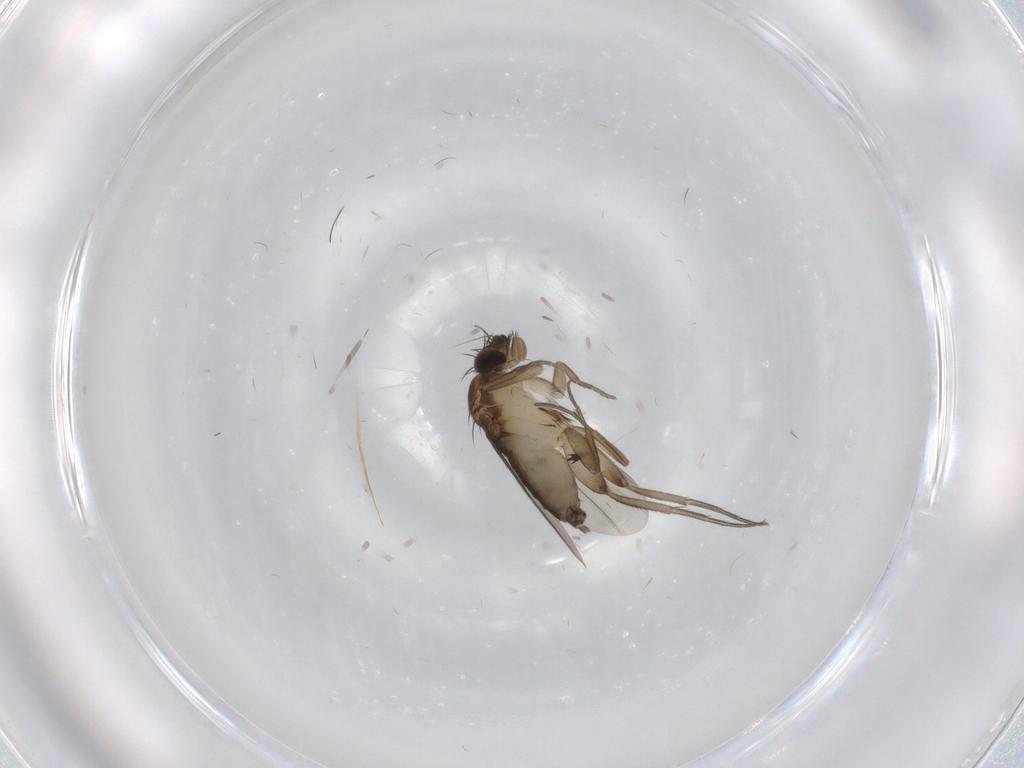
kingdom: Animalia
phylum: Arthropoda
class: Insecta
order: Diptera
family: Phoridae
